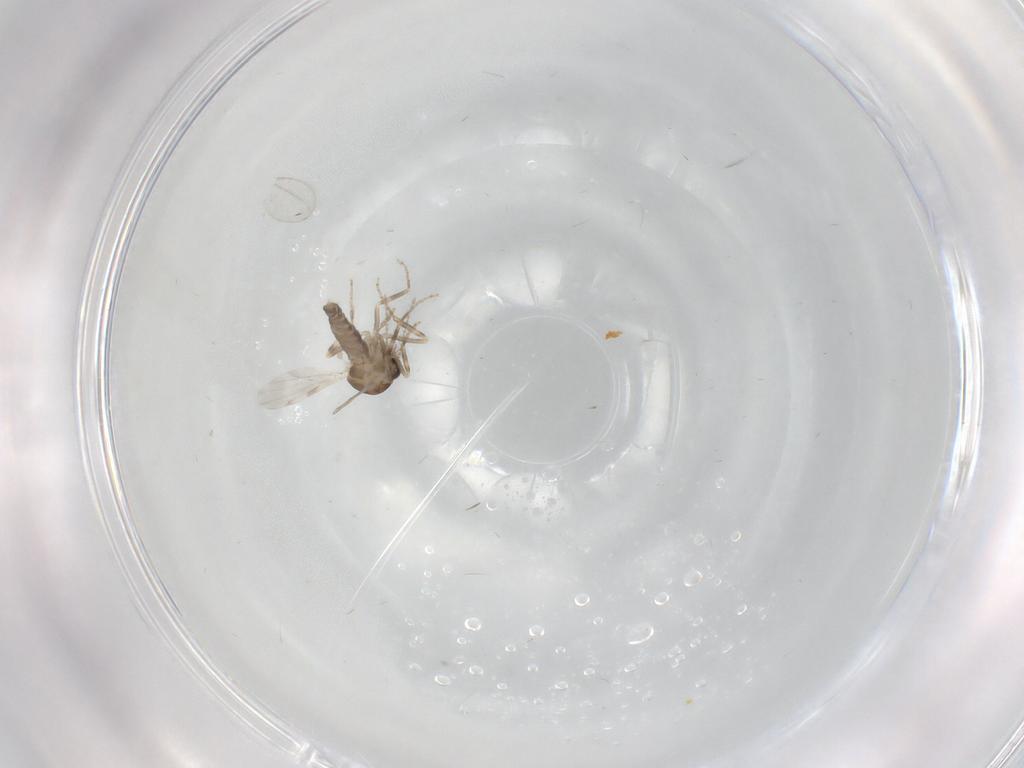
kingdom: Animalia
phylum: Arthropoda
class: Insecta
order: Diptera
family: Ceratopogonidae
